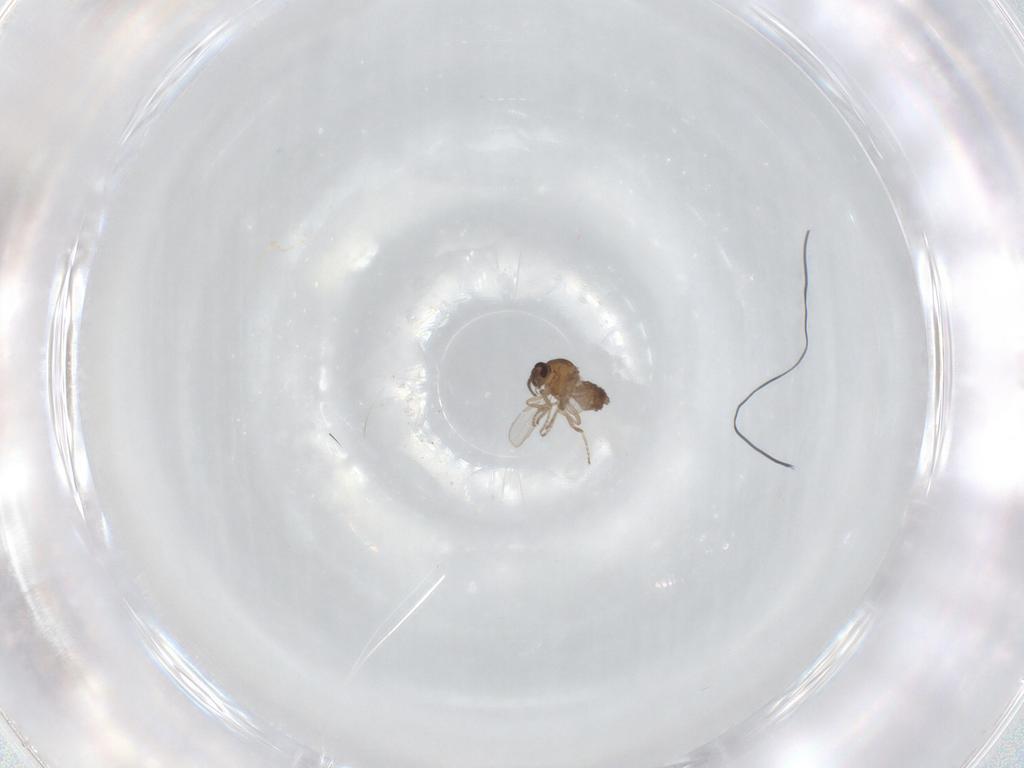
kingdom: Animalia
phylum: Arthropoda
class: Insecta
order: Diptera
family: Ceratopogonidae
